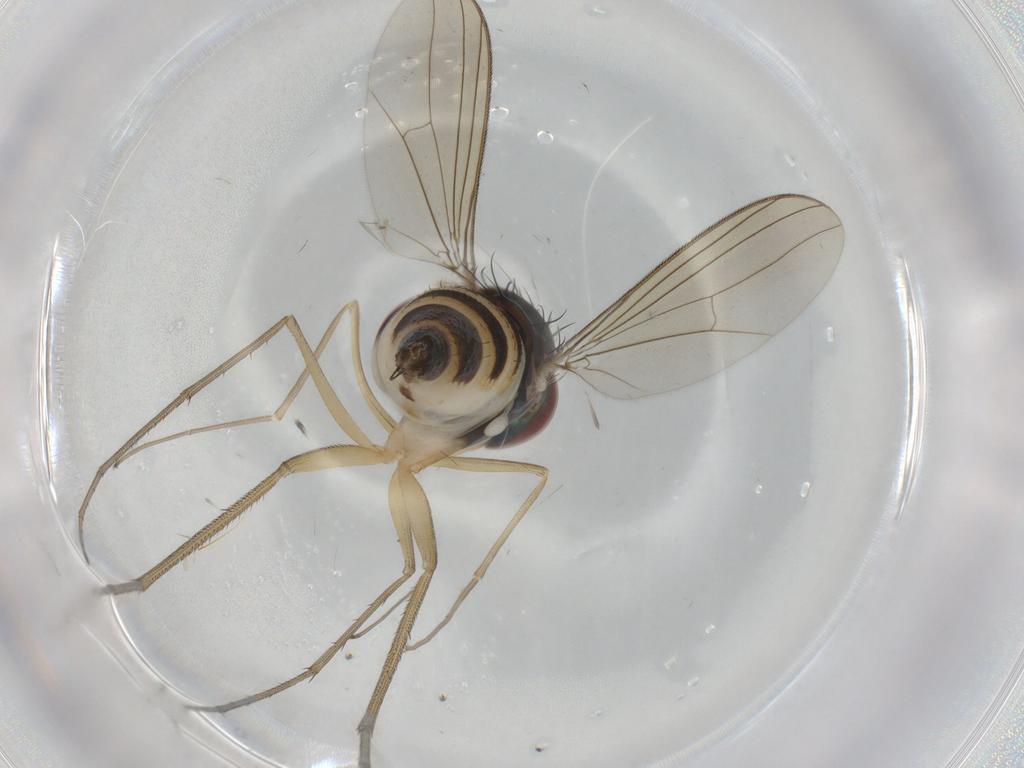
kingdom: Animalia
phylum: Arthropoda
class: Insecta
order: Diptera
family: Dolichopodidae
